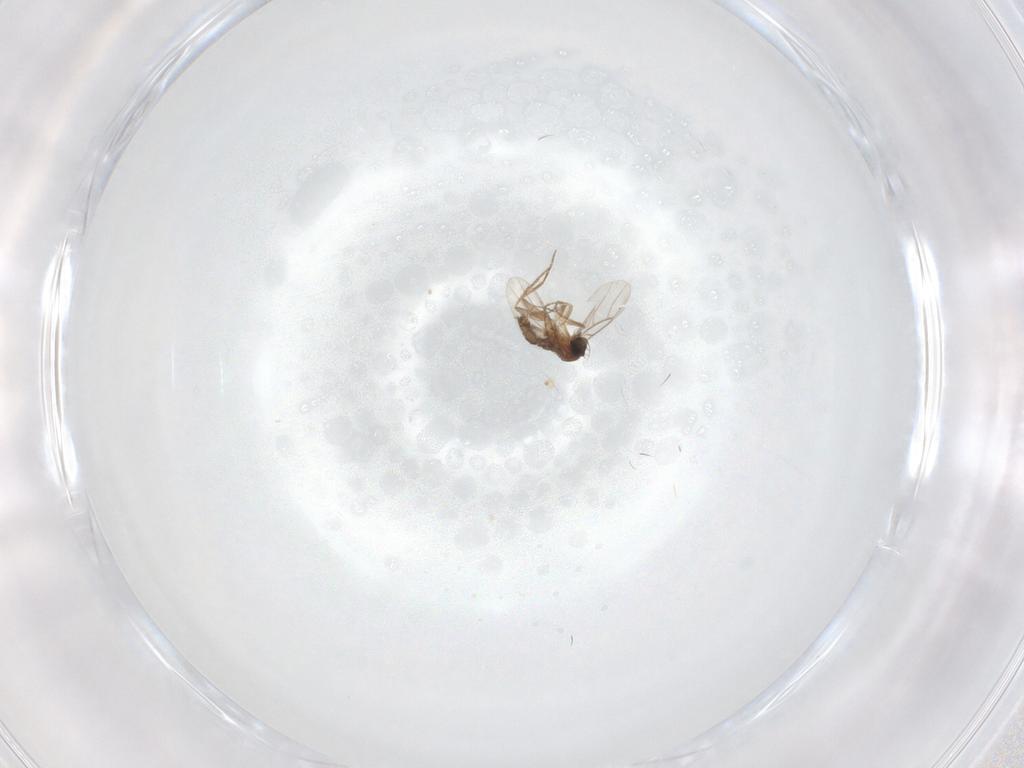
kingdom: Animalia
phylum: Arthropoda
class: Insecta
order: Diptera
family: Phoridae
